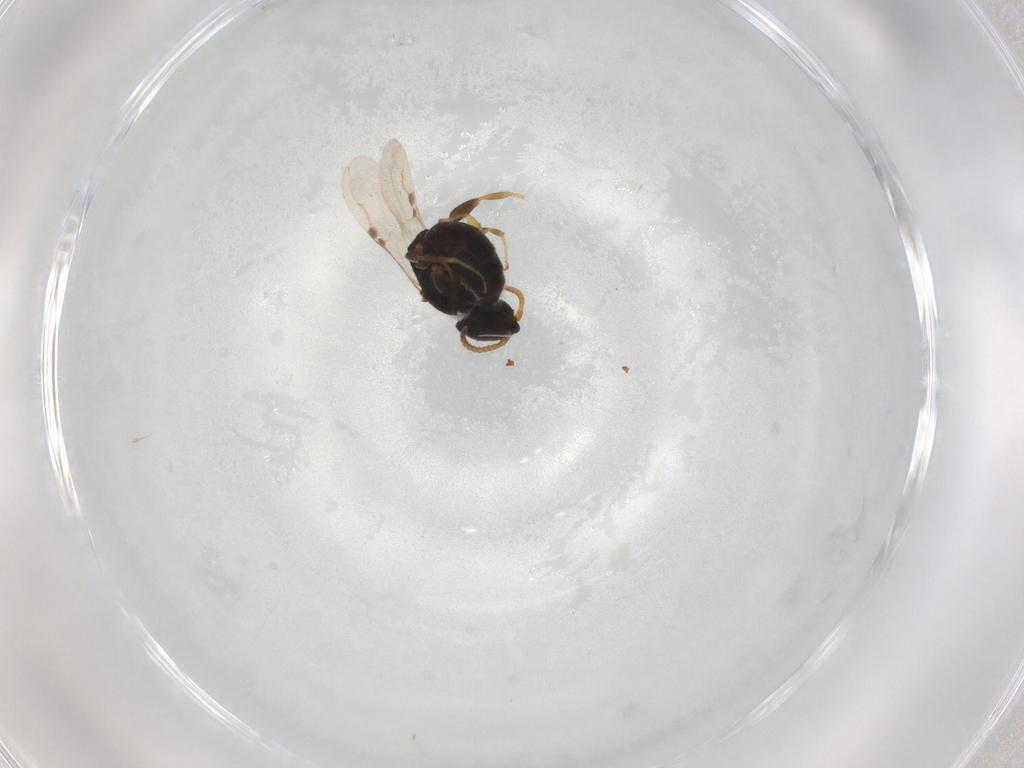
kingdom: Animalia
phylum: Arthropoda
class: Insecta
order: Hymenoptera
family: Bethylidae
